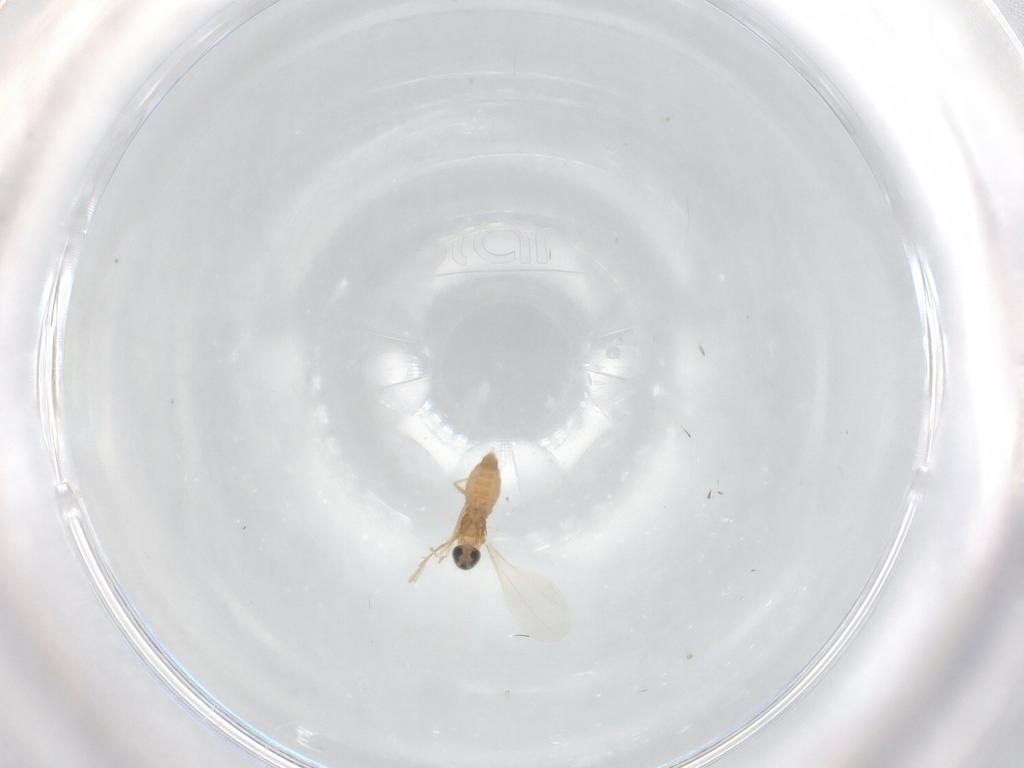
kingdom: Animalia
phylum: Arthropoda
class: Insecta
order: Diptera
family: Cecidomyiidae
